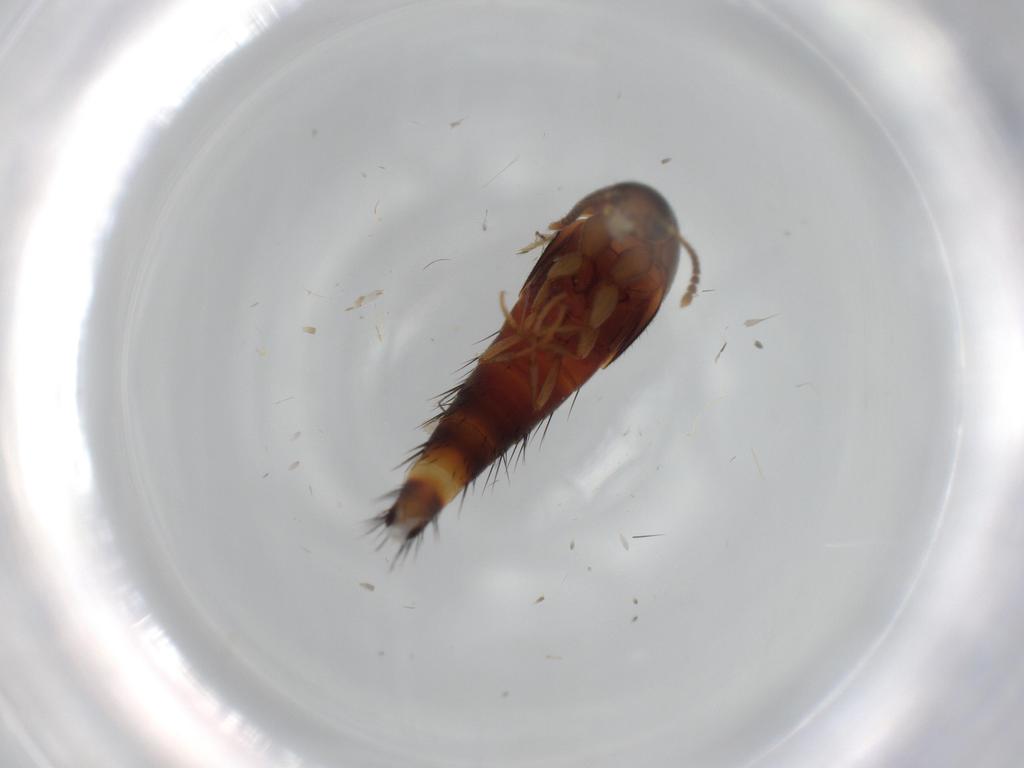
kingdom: Animalia
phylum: Arthropoda
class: Insecta
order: Coleoptera
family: Staphylinidae
